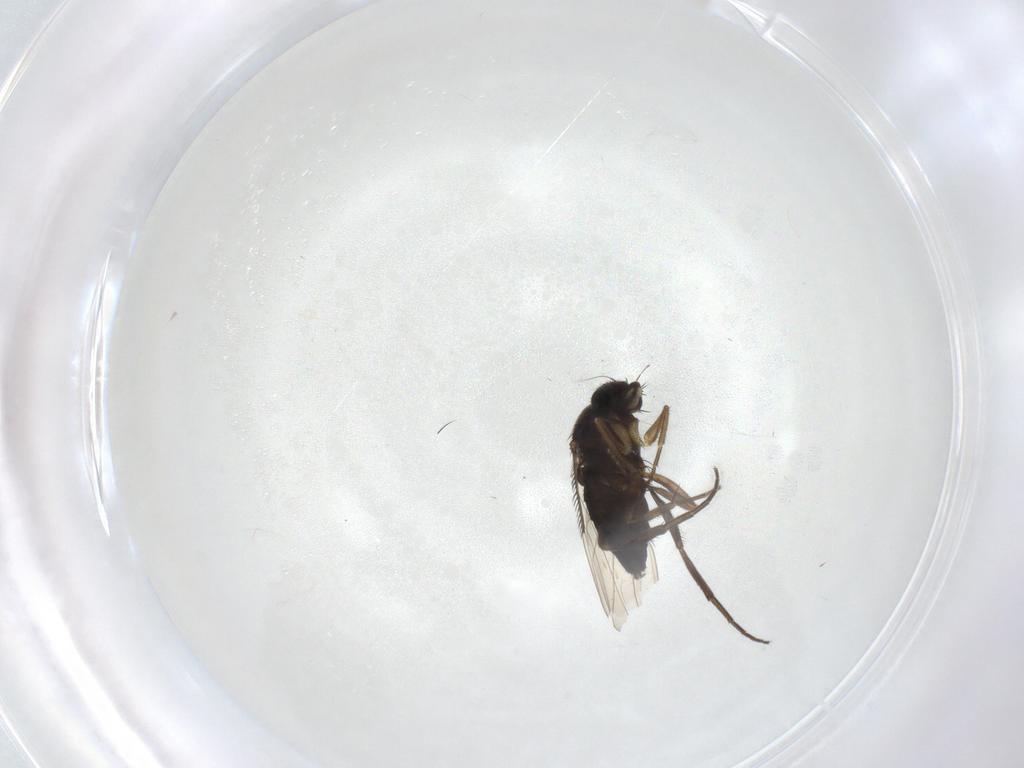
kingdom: Animalia
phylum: Arthropoda
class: Insecta
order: Diptera
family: Phoridae
